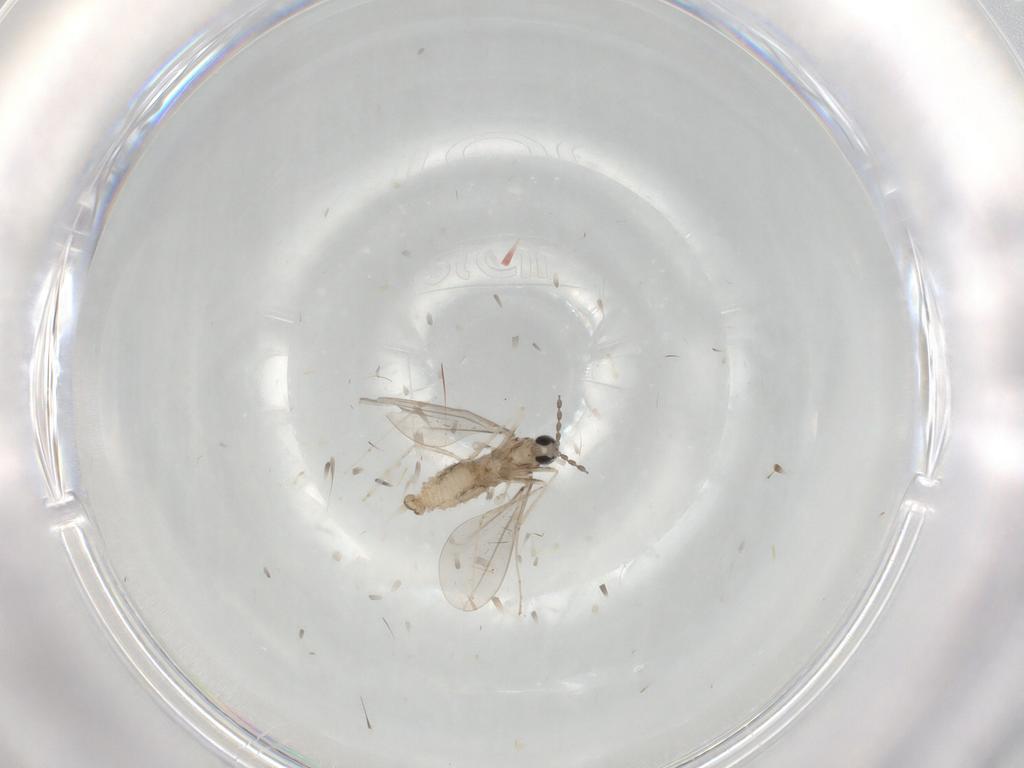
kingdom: Animalia
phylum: Arthropoda
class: Insecta
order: Diptera
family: Cecidomyiidae
